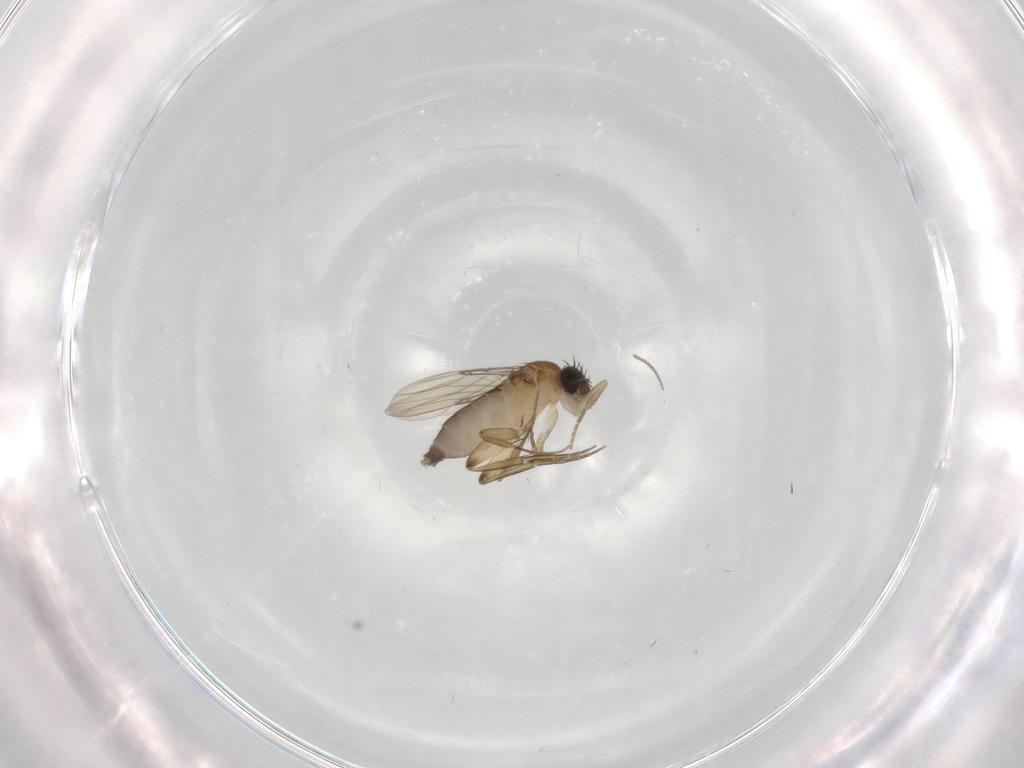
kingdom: Animalia
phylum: Arthropoda
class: Insecta
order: Diptera
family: Phoridae
